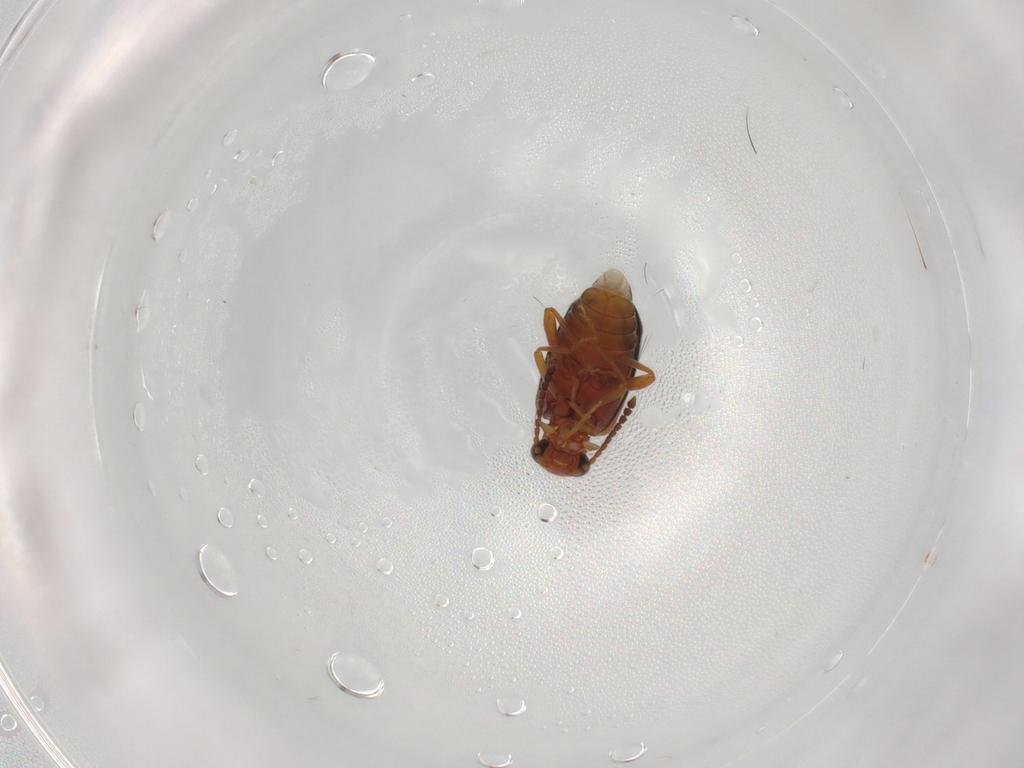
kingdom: Animalia
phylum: Arthropoda
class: Insecta
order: Coleoptera
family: Aderidae
